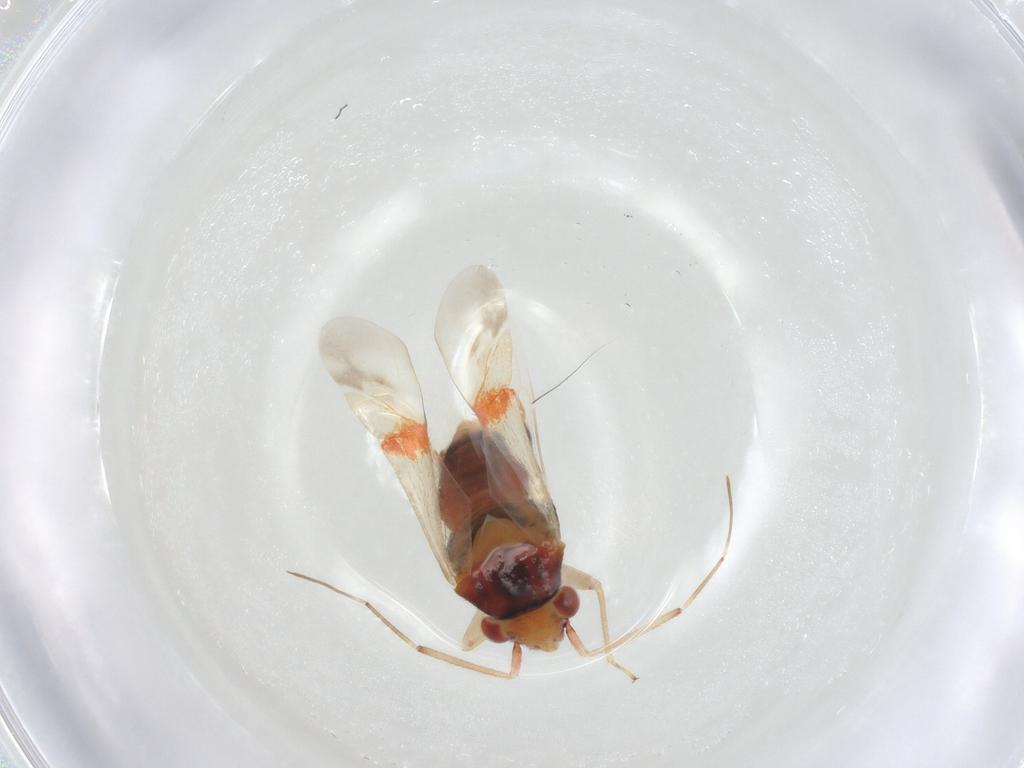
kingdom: Animalia
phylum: Arthropoda
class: Insecta
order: Hemiptera
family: Miridae
